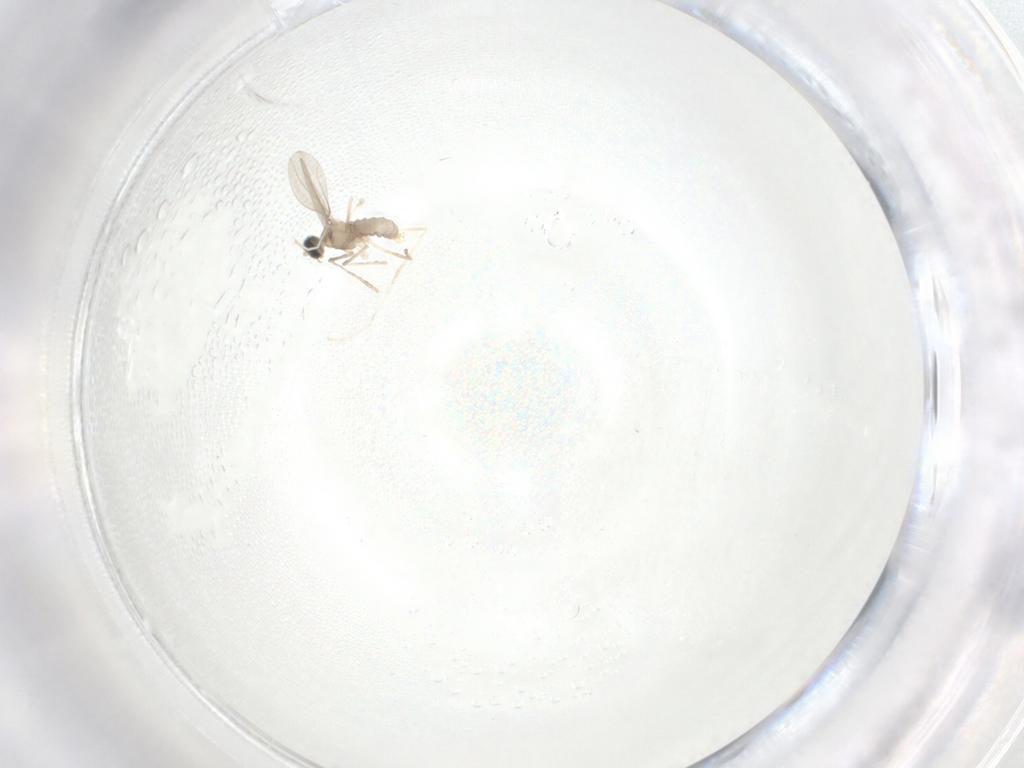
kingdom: Animalia
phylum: Arthropoda
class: Insecta
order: Diptera
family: Cecidomyiidae
